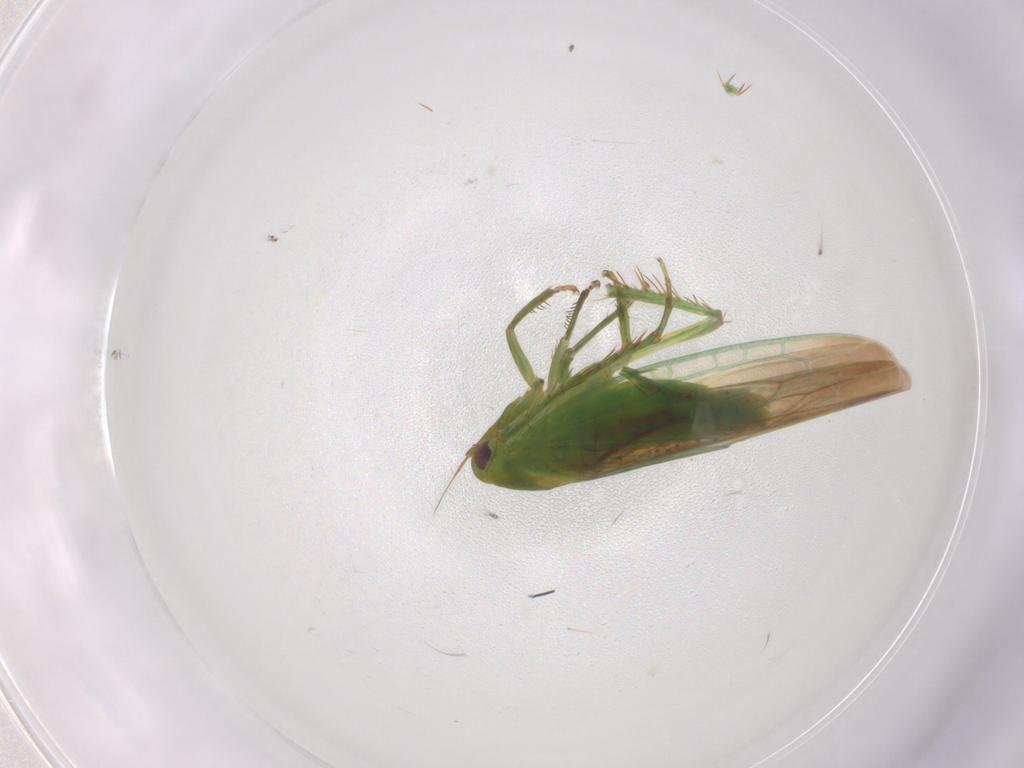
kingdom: Animalia
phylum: Arthropoda
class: Insecta
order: Hemiptera
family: Cicadellidae
